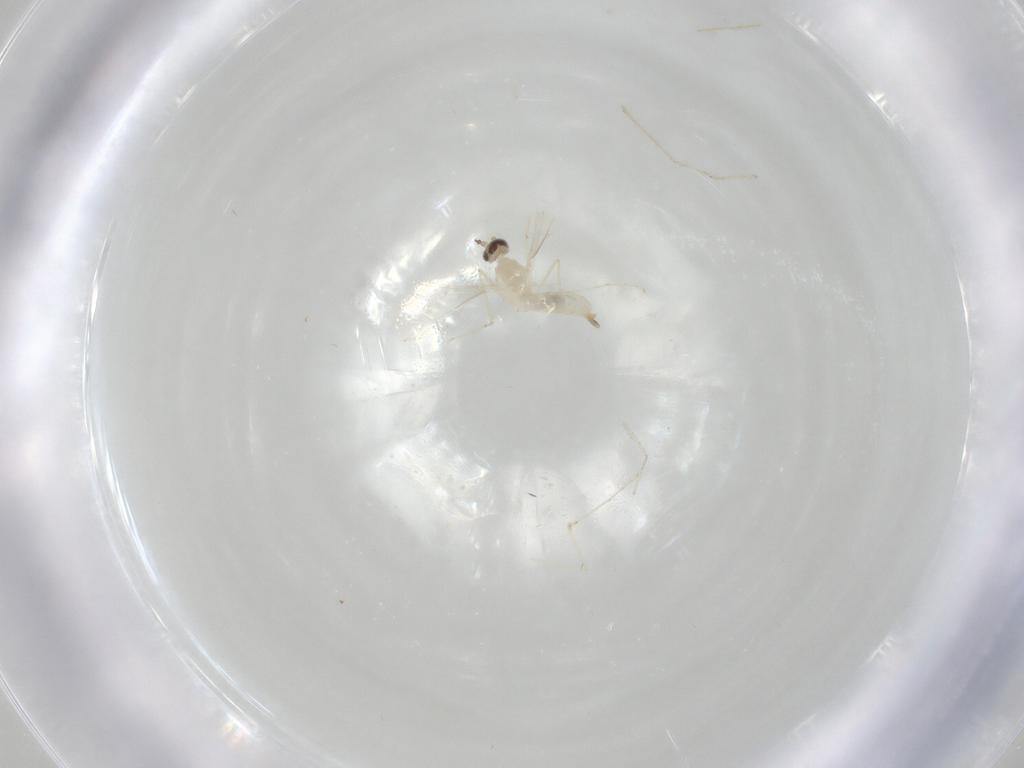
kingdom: Animalia
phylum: Arthropoda
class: Insecta
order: Diptera
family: Cecidomyiidae
